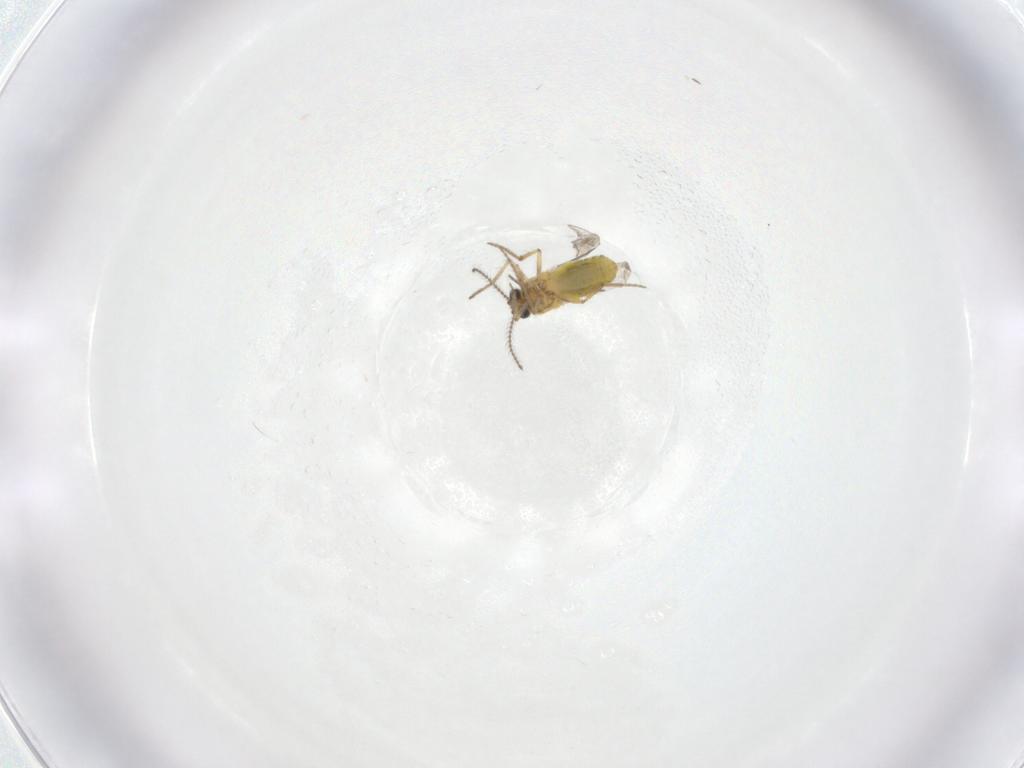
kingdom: Animalia
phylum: Arthropoda
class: Insecta
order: Diptera
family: Ceratopogonidae
